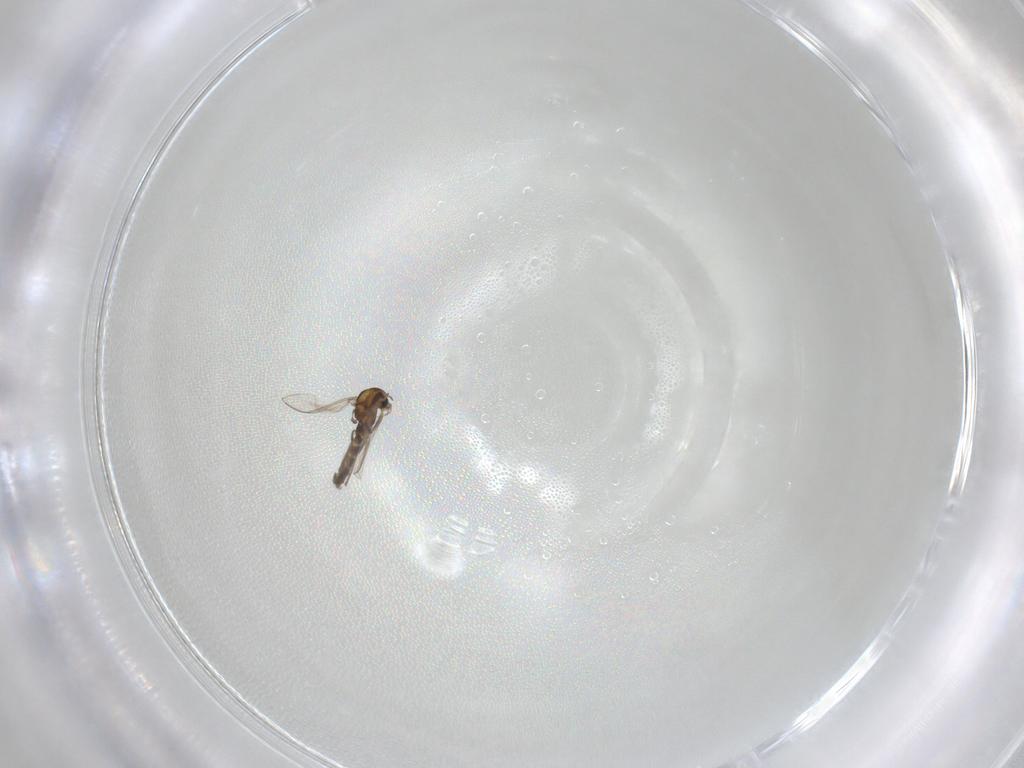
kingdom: Animalia
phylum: Arthropoda
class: Insecta
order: Diptera
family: Chironomidae
